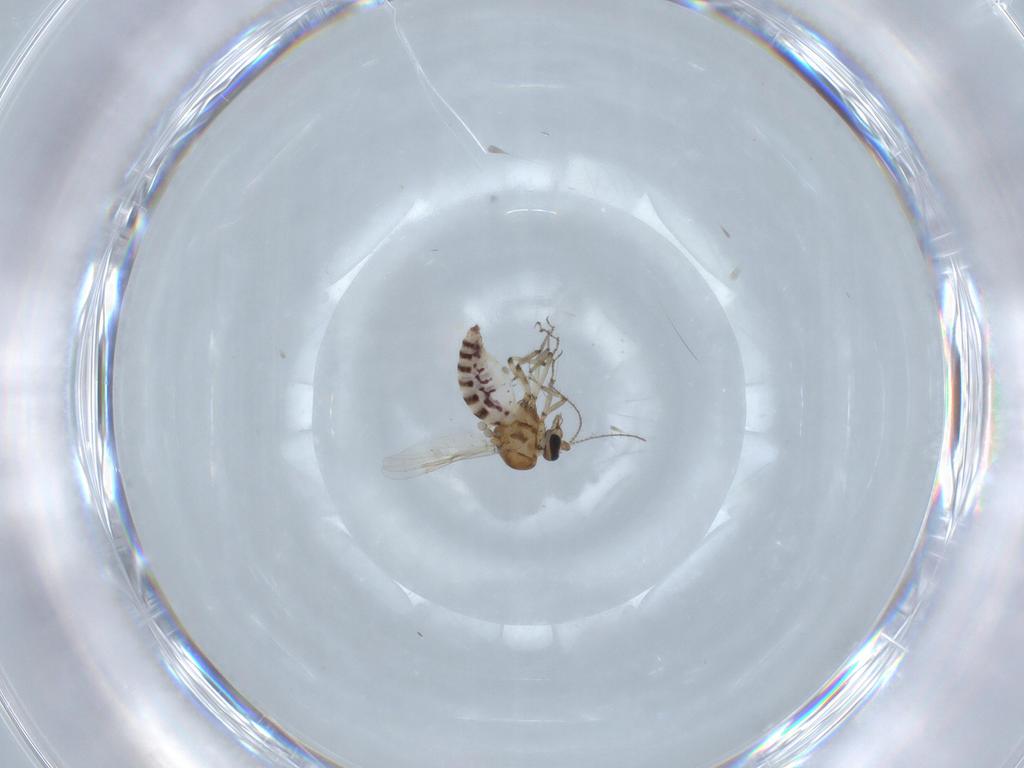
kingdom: Animalia
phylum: Arthropoda
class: Insecta
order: Diptera
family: Ceratopogonidae
